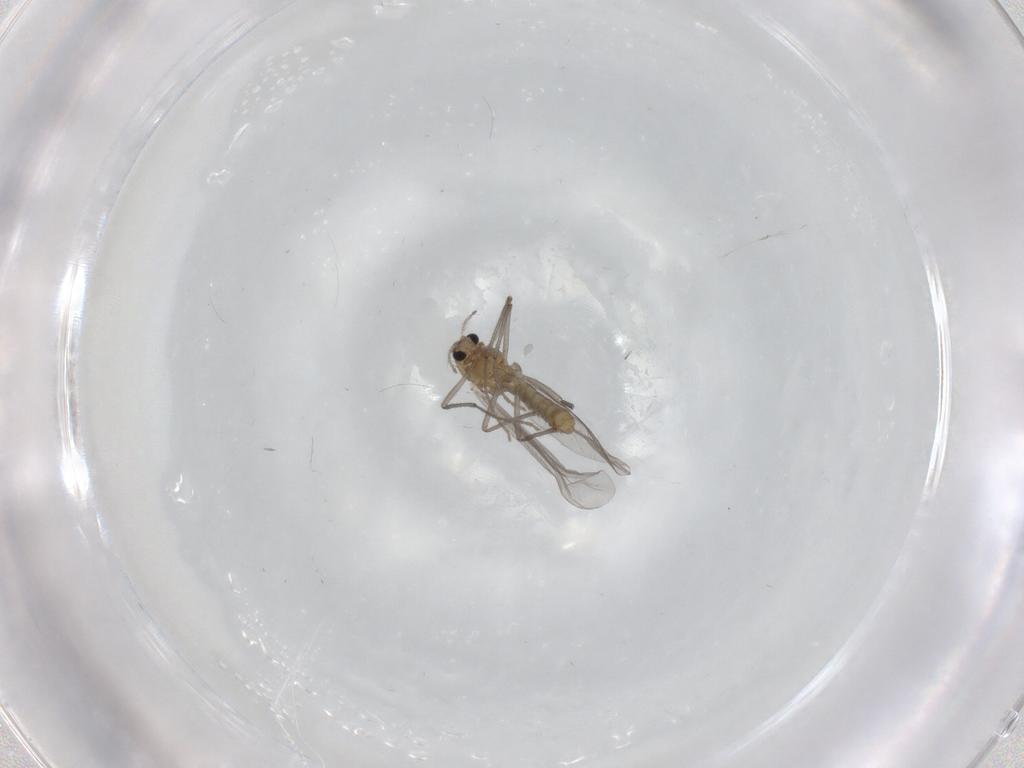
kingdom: Animalia
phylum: Arthropoda
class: Insecta
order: Diptera
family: Chironomidae
